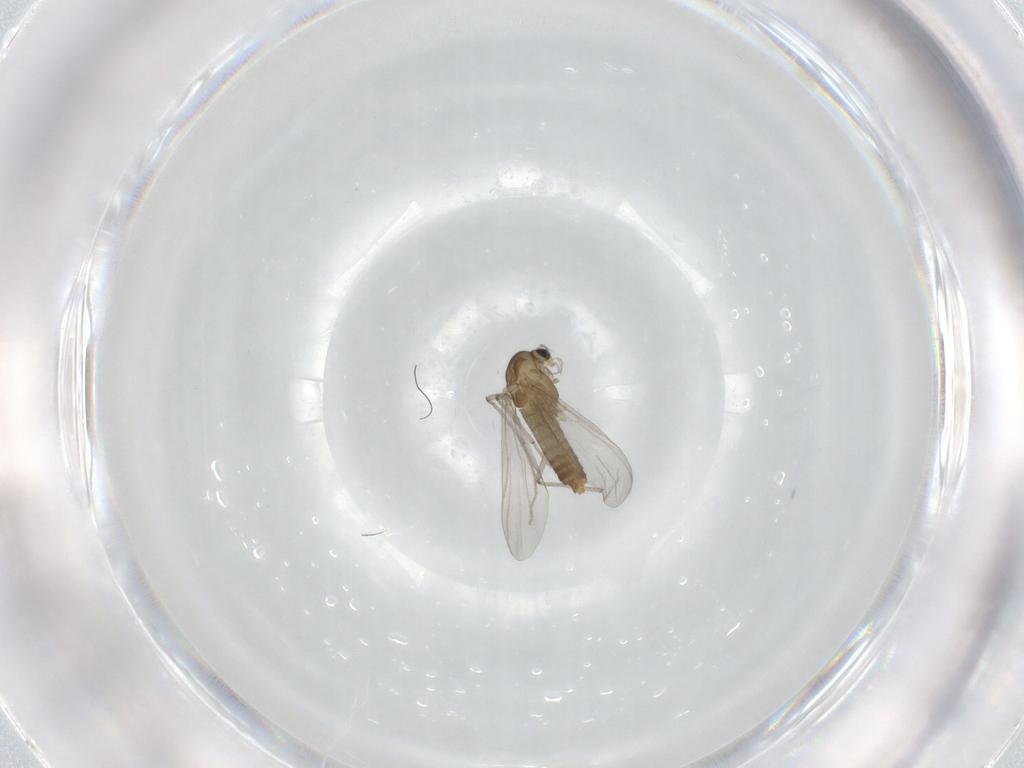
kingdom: Animalia
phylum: Arthropoda
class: Insecta
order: Diptera
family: Chironomidae
